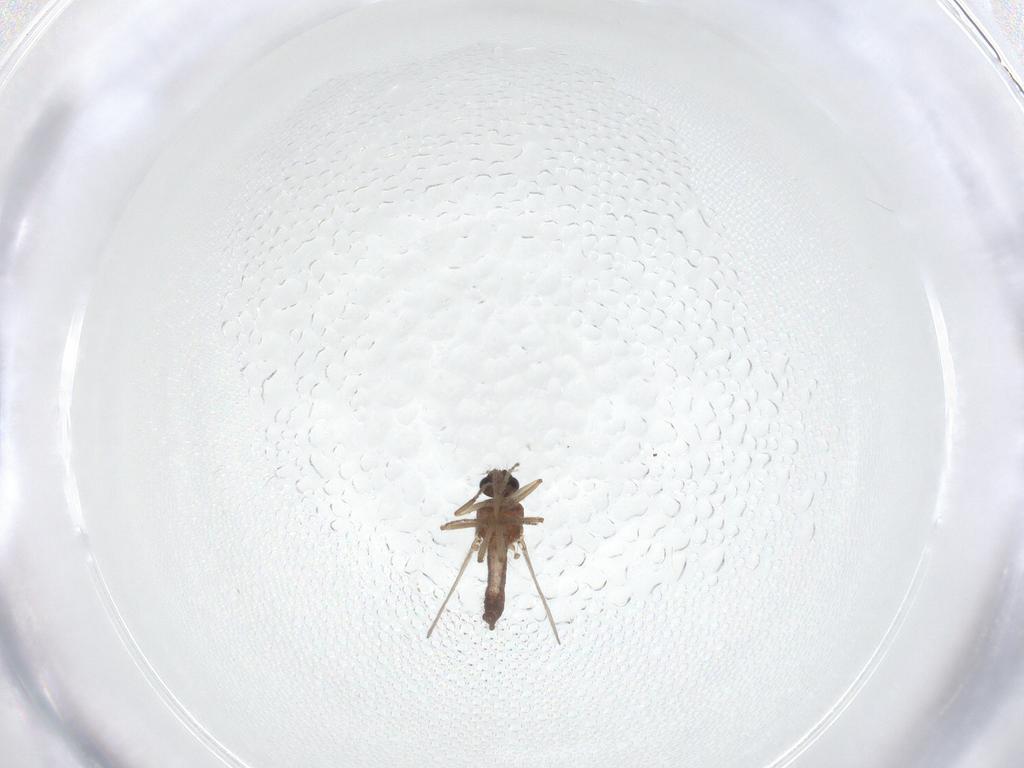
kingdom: Animalia
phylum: Arthropoda
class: Insecta
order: Diptera
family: Ceratopogonidae
